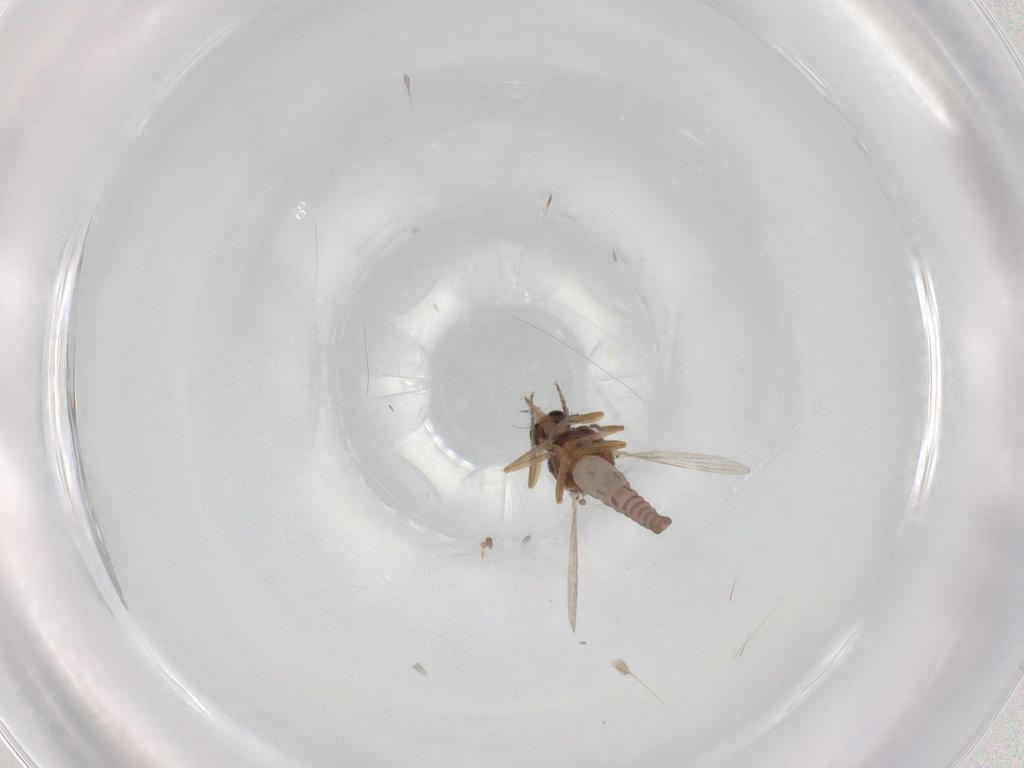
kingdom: Animalia
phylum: Arthropoda
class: Insecta
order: Diptera
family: Ceratopogonidae
